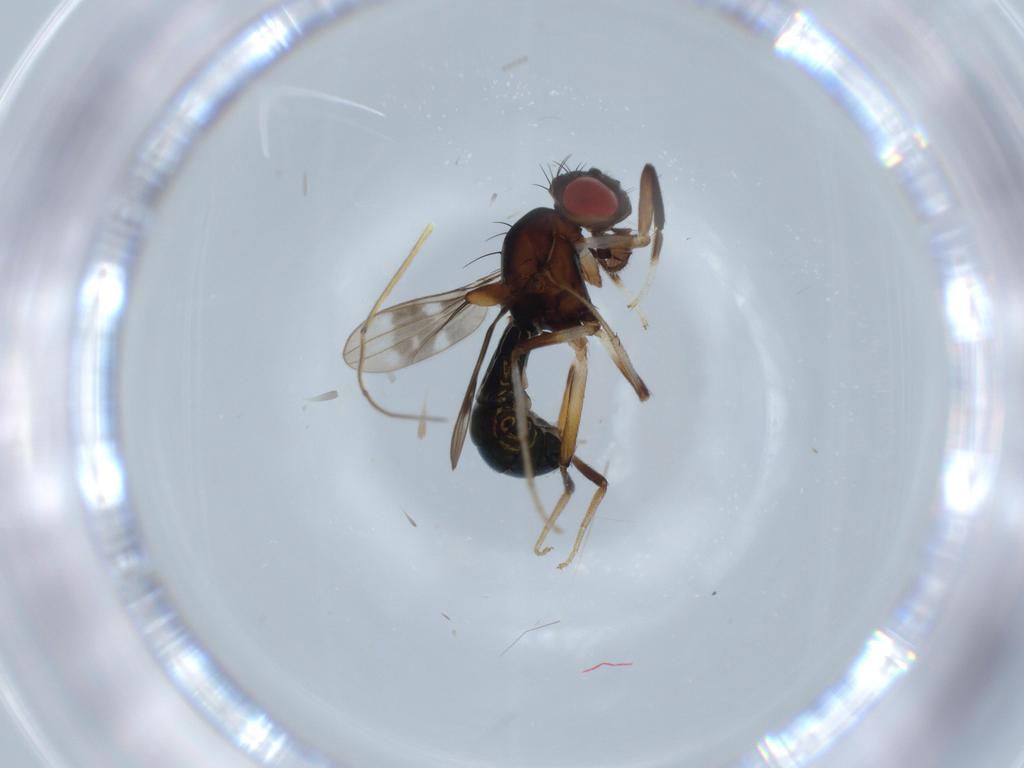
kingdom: Animalia
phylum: Arthropoda
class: Insecta
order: Diptera
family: Drosophilidae
